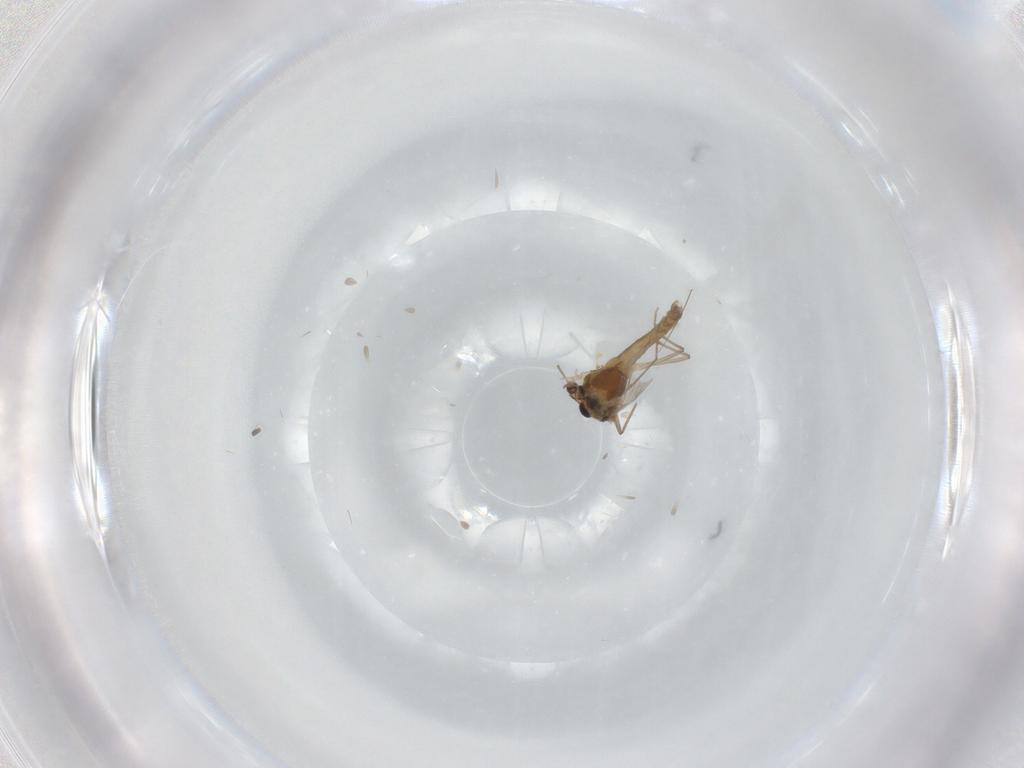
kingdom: Animalia
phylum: Arthropoda
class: Insecta
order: Diptera
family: Chironomidae
